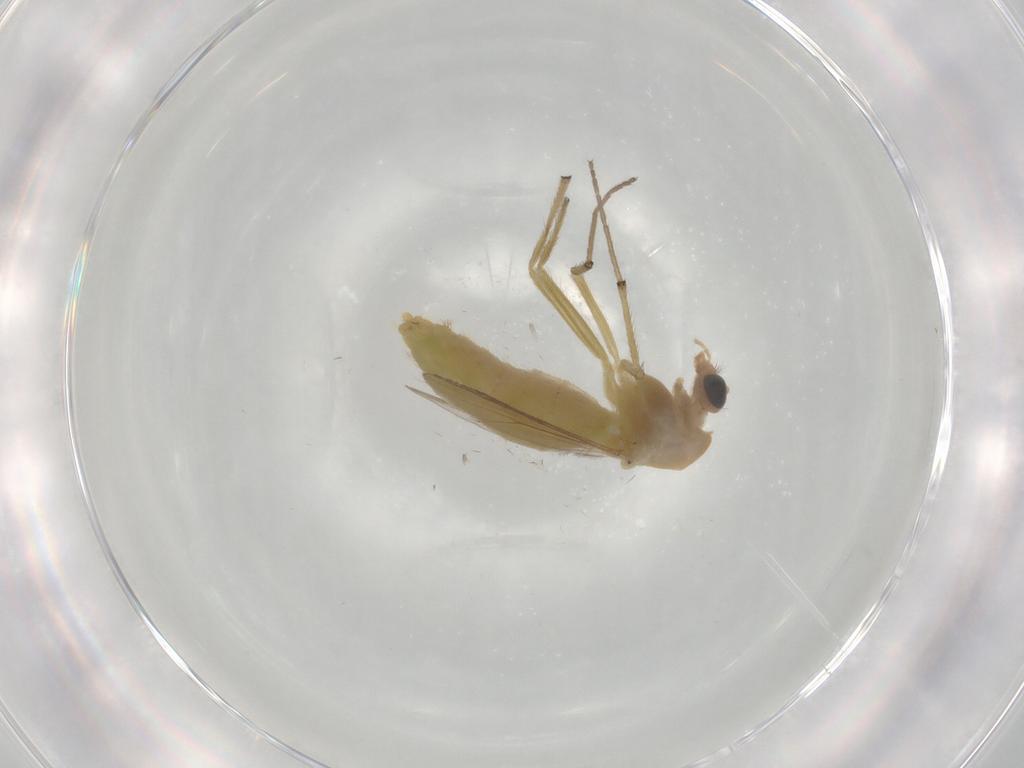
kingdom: Animalia
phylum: Arthropoda
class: Insecta
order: Diptera
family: Chironomidae
